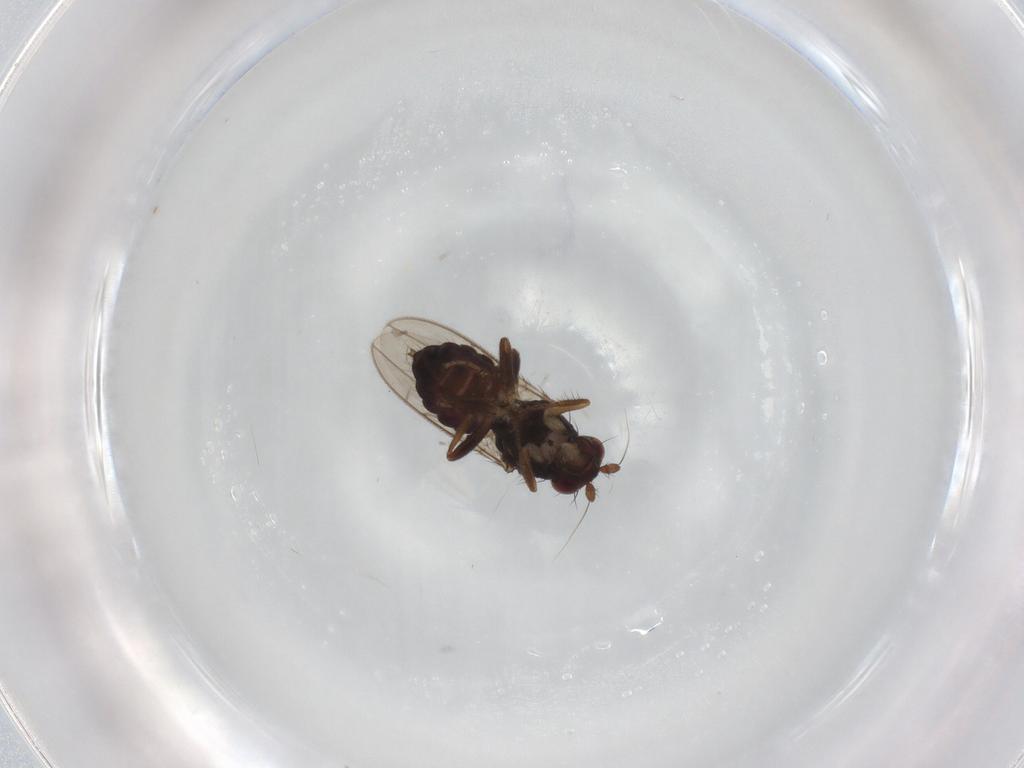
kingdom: Animalia
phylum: Arthropoda
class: Insecta
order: Diptera
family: Sphaeroceridae
